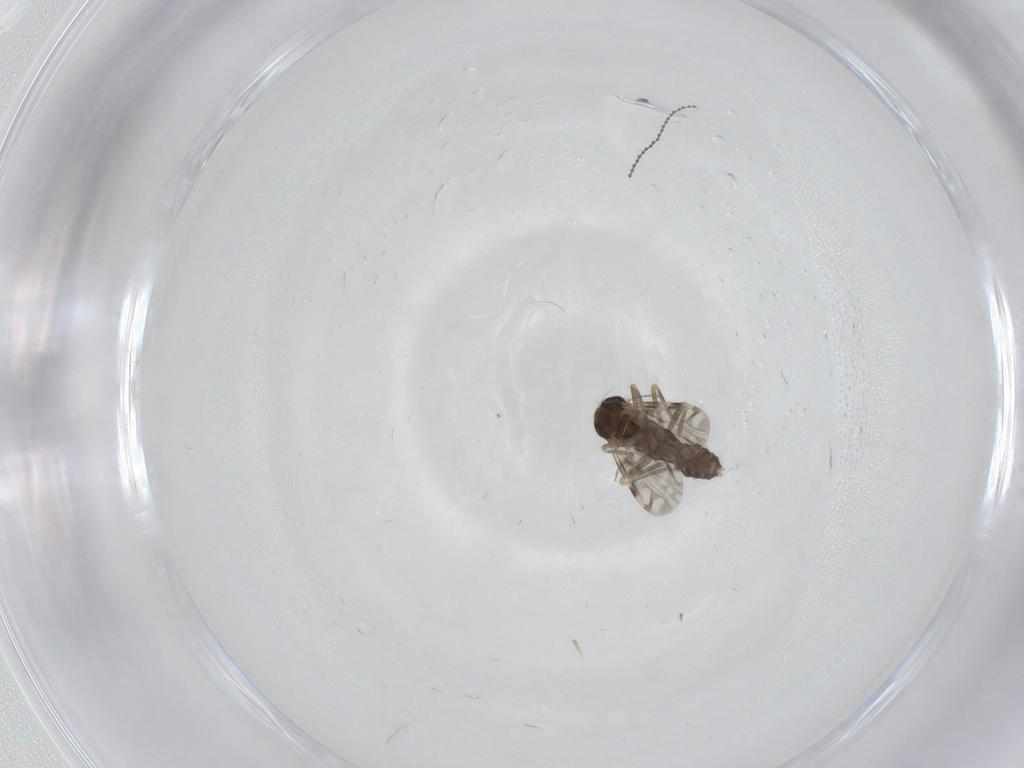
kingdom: Animalia
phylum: Arthropoda
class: Insecta
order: Diptera
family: Ceratopogonidae
